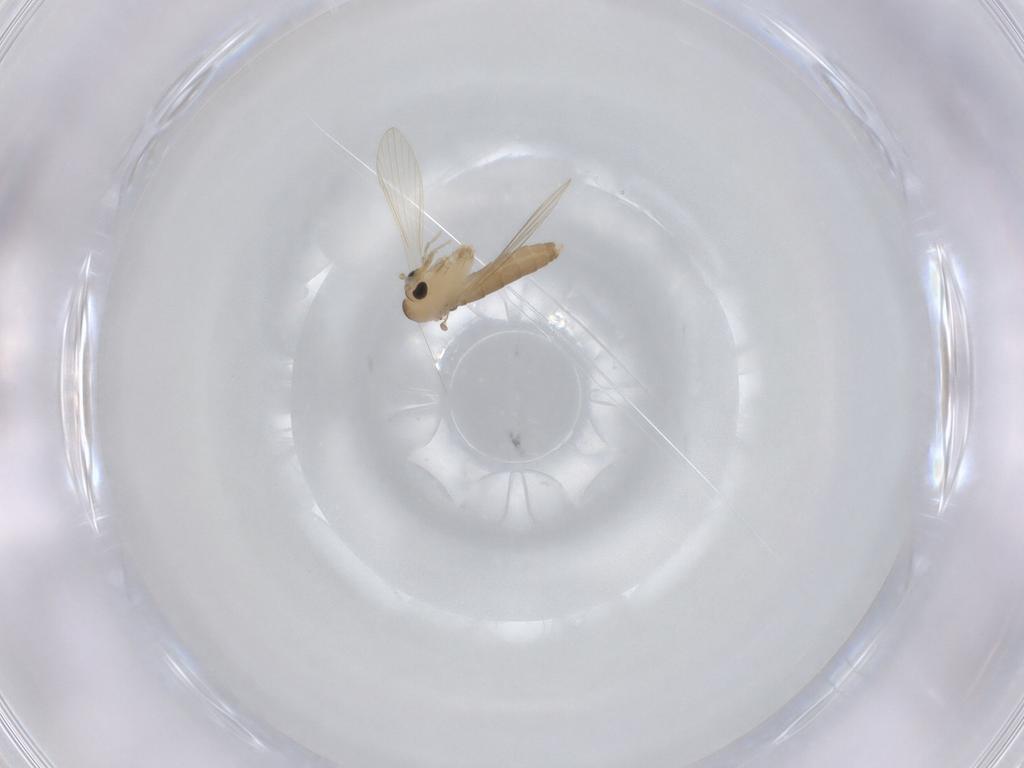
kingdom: Animalia
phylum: Arthropoda
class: Insecta
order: Diptera
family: Psychodidae
